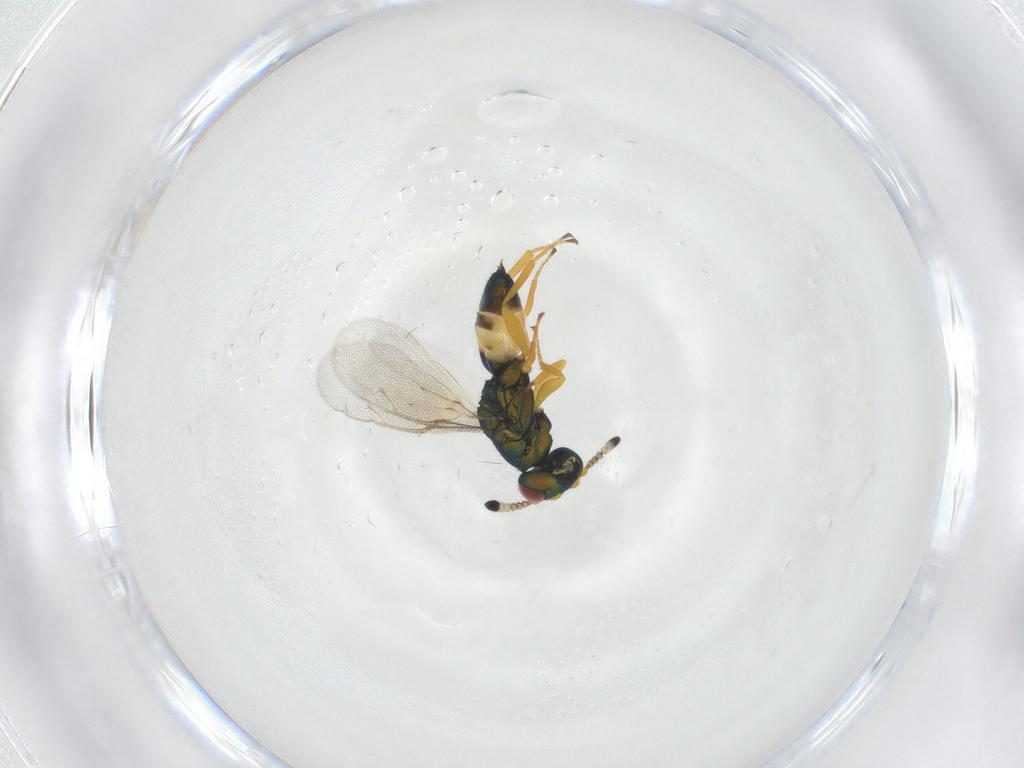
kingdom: Animalia
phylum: Arthropoda
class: Insecta
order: Hymenoptera
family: Pteromalidae
